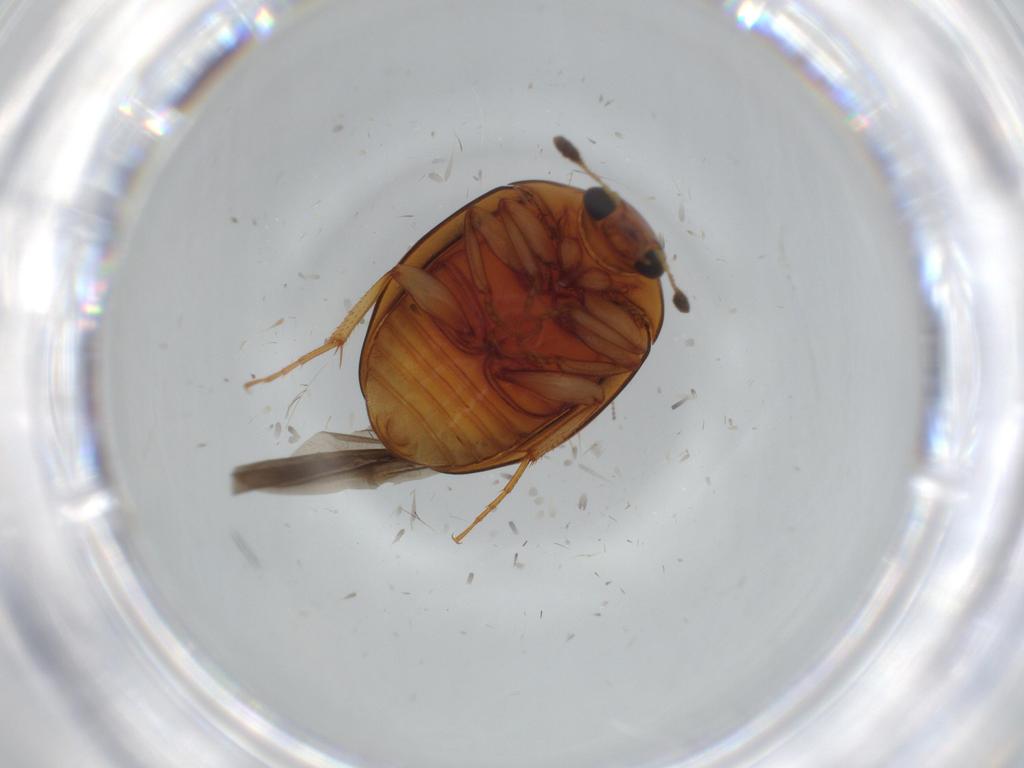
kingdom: Animalia
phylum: Arthropoda
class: Insecta
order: Coleoptera
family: Nitidulidae
